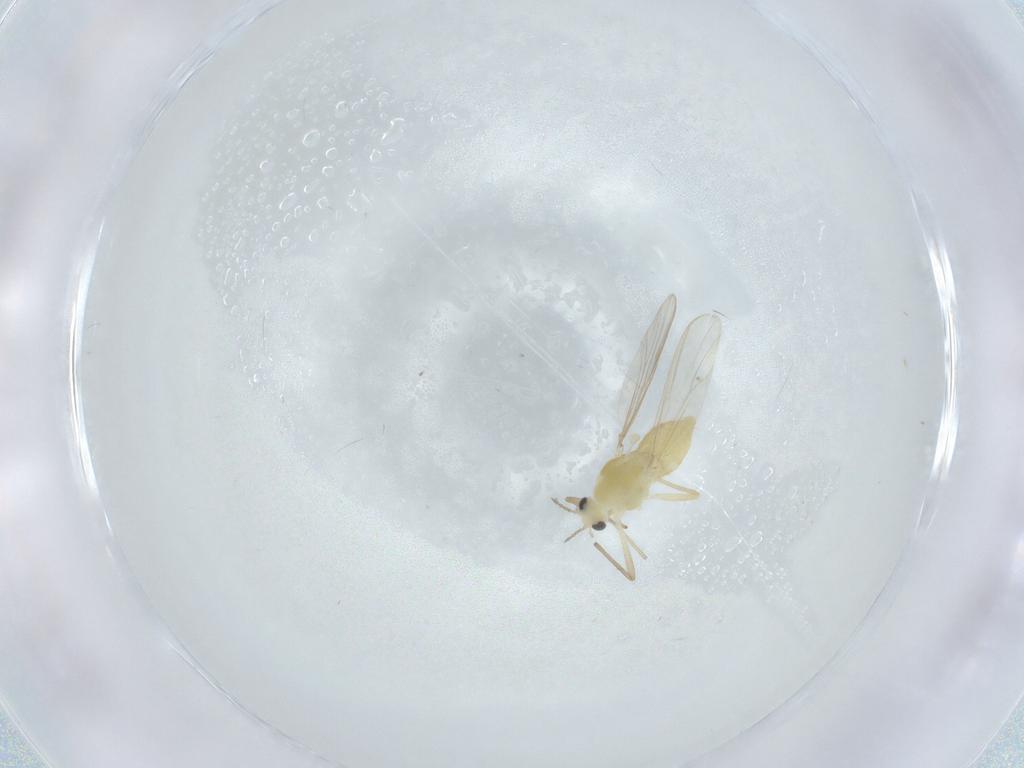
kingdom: Animalia
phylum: Arthropoda
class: Insecta
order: Diptera
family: Chironomidae
